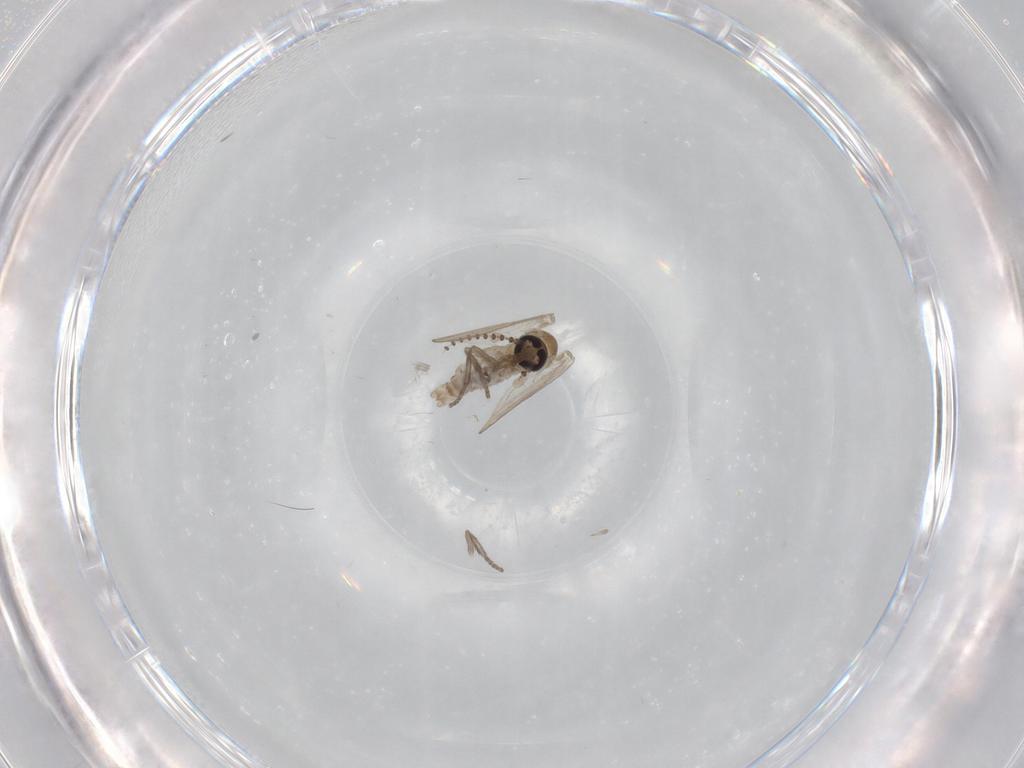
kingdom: Animalia
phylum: Arthropoda
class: Insecta
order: Diptera
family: Psychodidae
